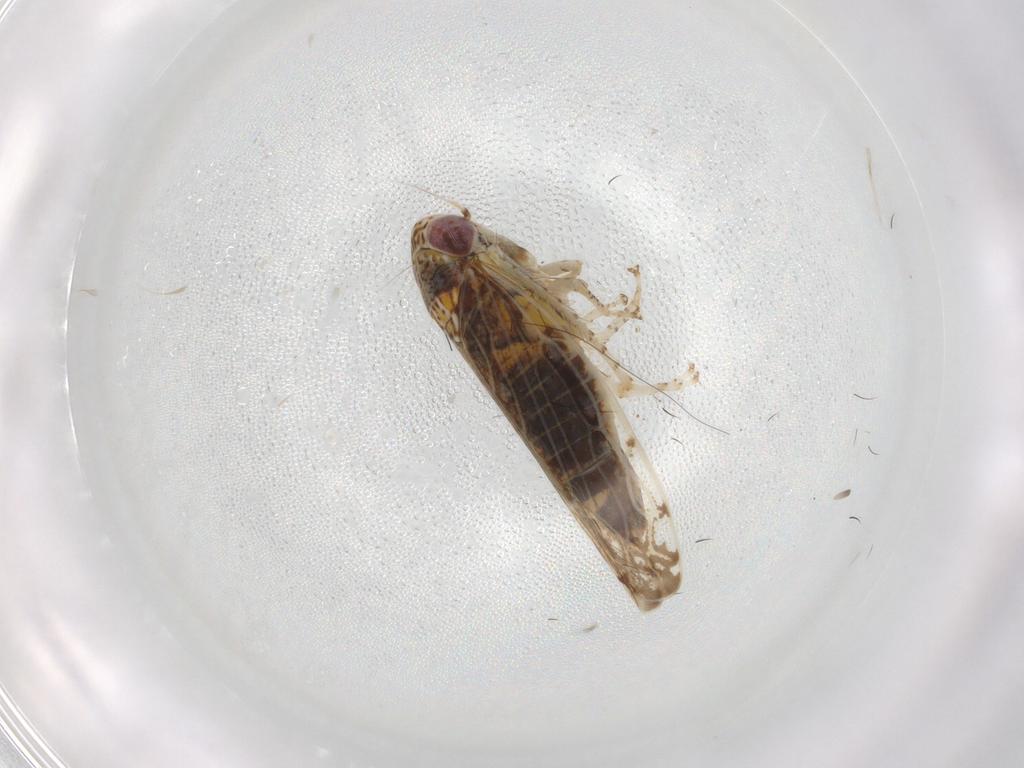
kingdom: Animalia
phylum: Arthropoda
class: Insecta
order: Hemiptera
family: Cicadellidae
